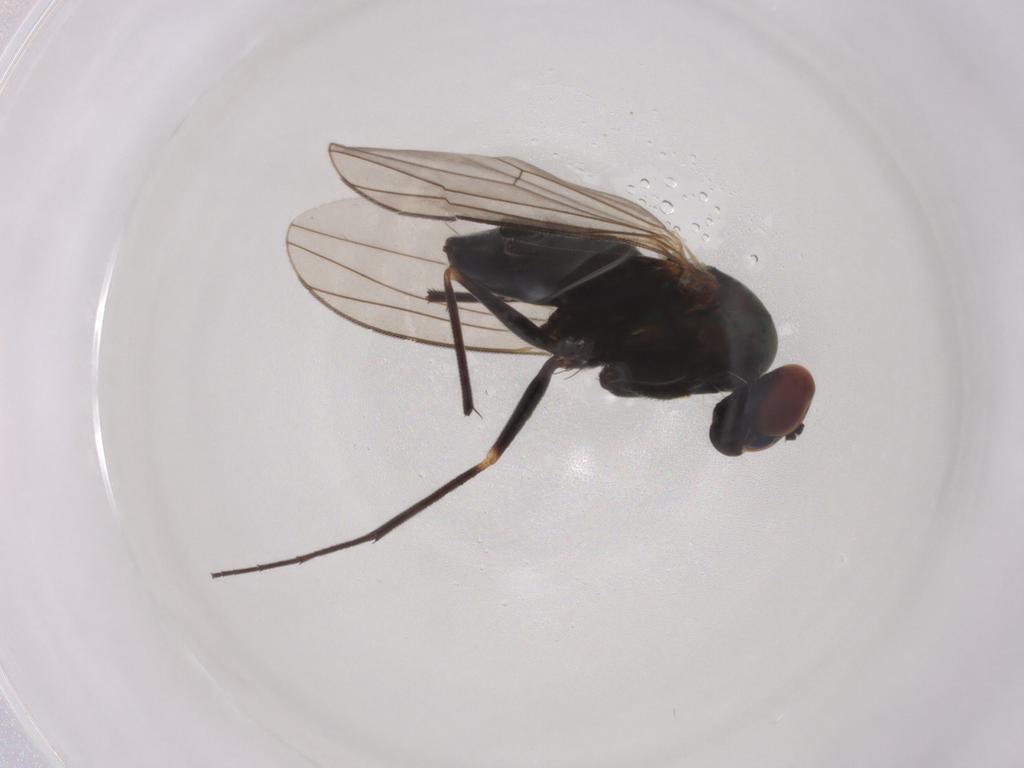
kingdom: Animalia
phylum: Arthropoda
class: Insecta
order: Diptera
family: Dolichopodidae
